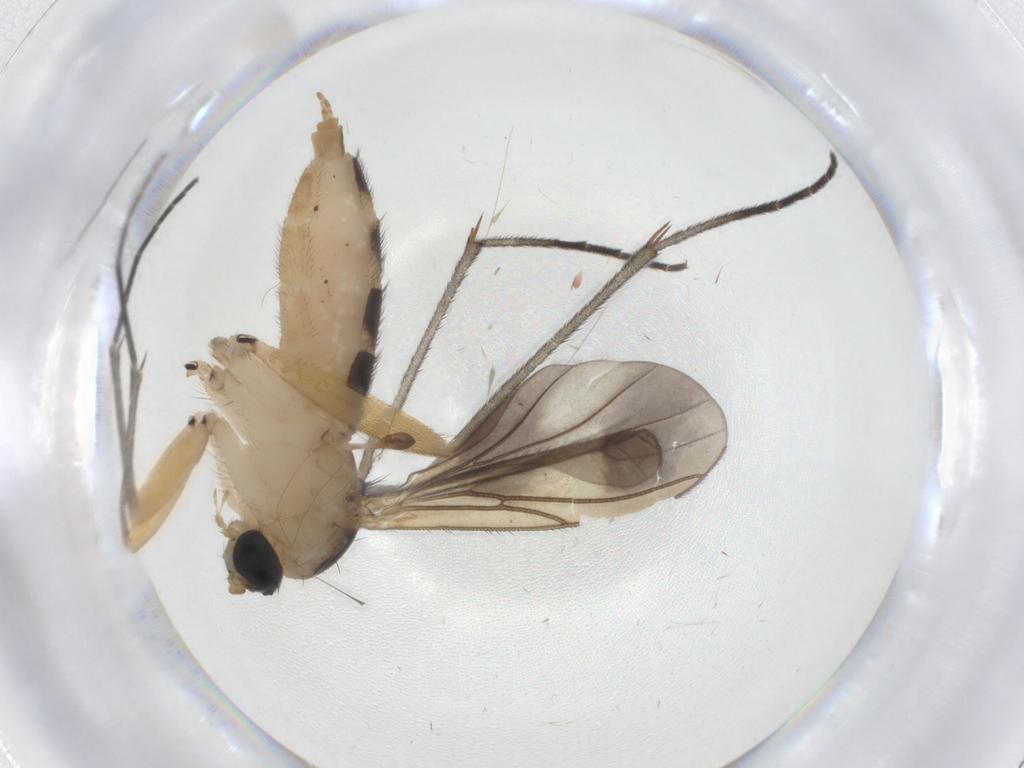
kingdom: Animalia
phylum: Arthropoda
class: Insecta
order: Diptera
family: Sciaridae
